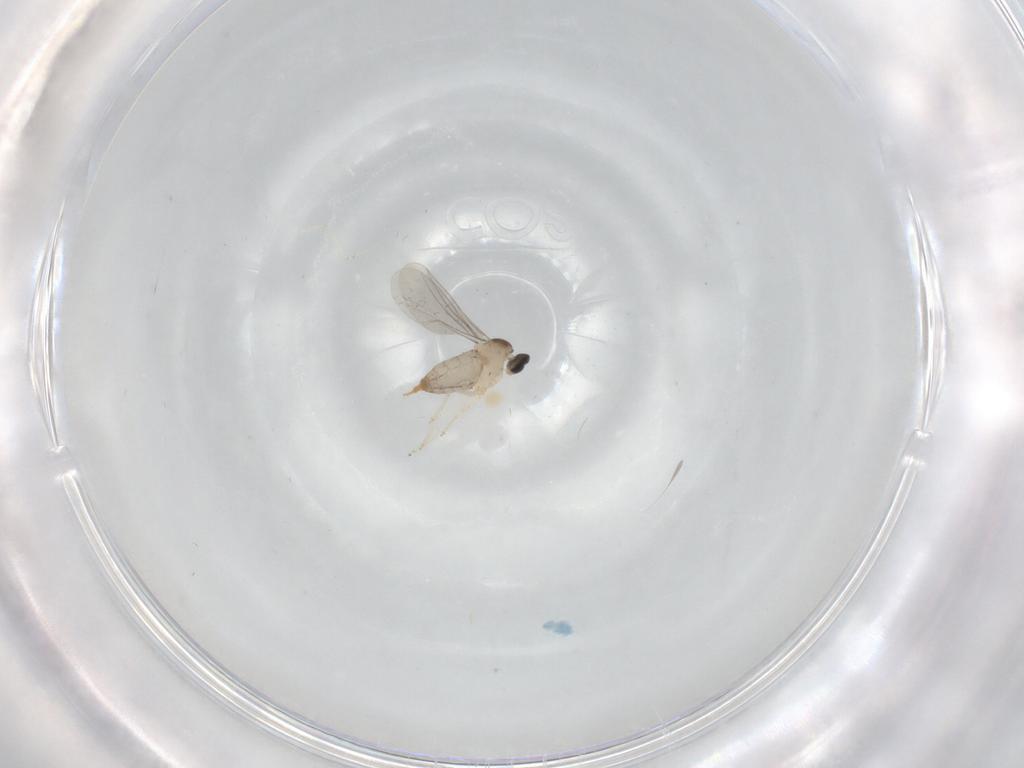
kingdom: Animalia
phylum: Arthropoda
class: Insecta
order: Diptera
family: Cecidomyiidae
